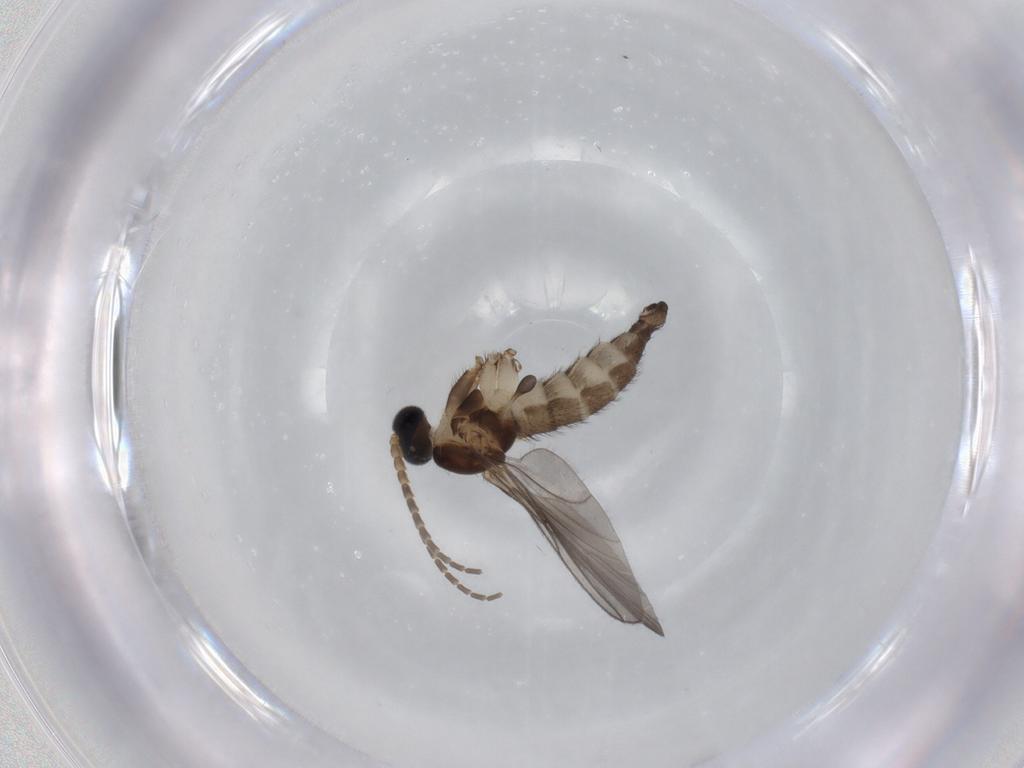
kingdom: Animalia
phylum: Arthropoda
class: Insecta
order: Diptera
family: Sciaridae
